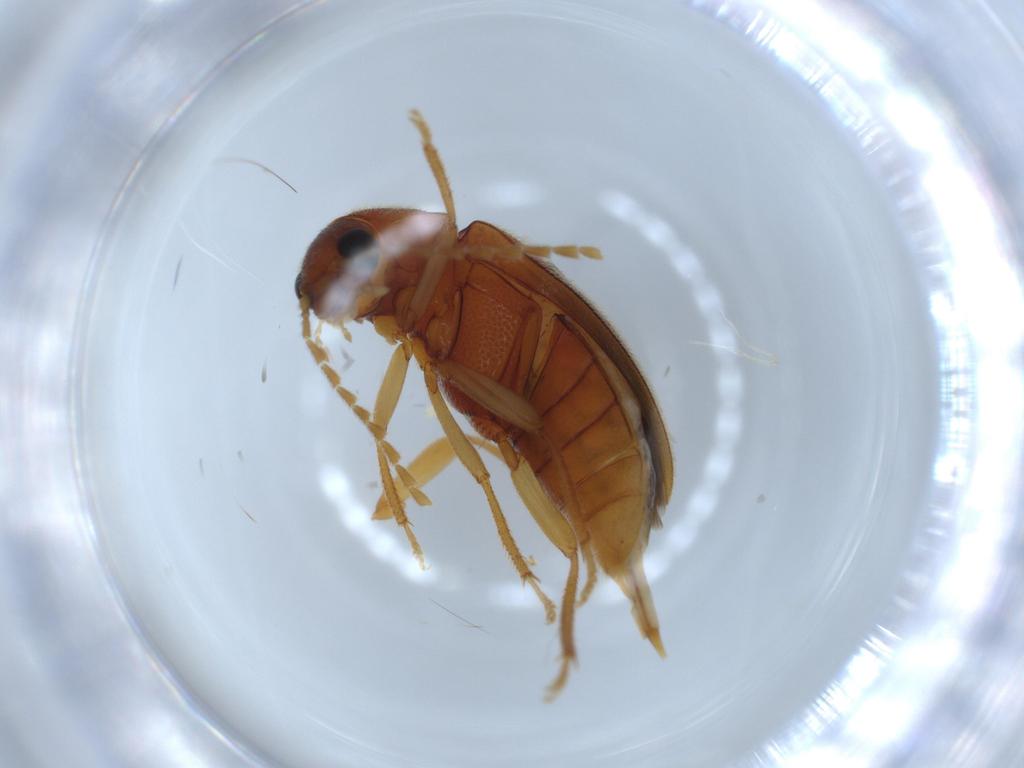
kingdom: Animalia
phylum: Arthropoda
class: Insecta
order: Coleoptera
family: Ptilodactylidae
